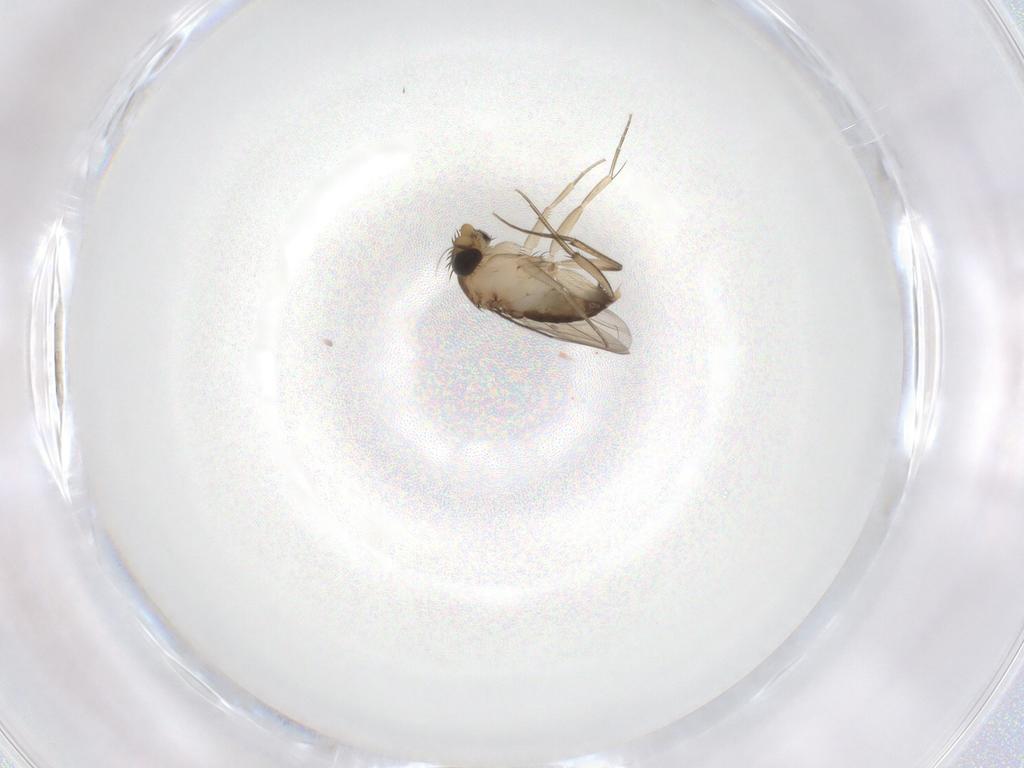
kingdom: Animalia
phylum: Arthropoda
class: Insecta
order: Diptera
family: Phoridae
